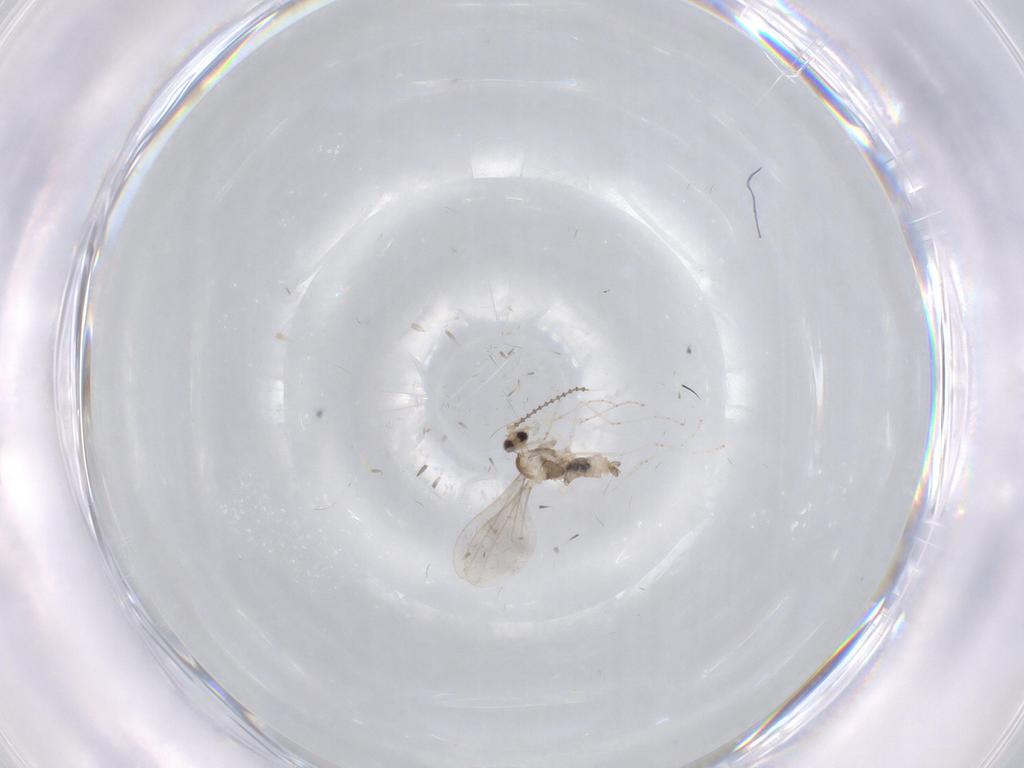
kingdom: Animalia
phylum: Arthropoda
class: Insecta
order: Diptera
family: Cecidomyiidae
